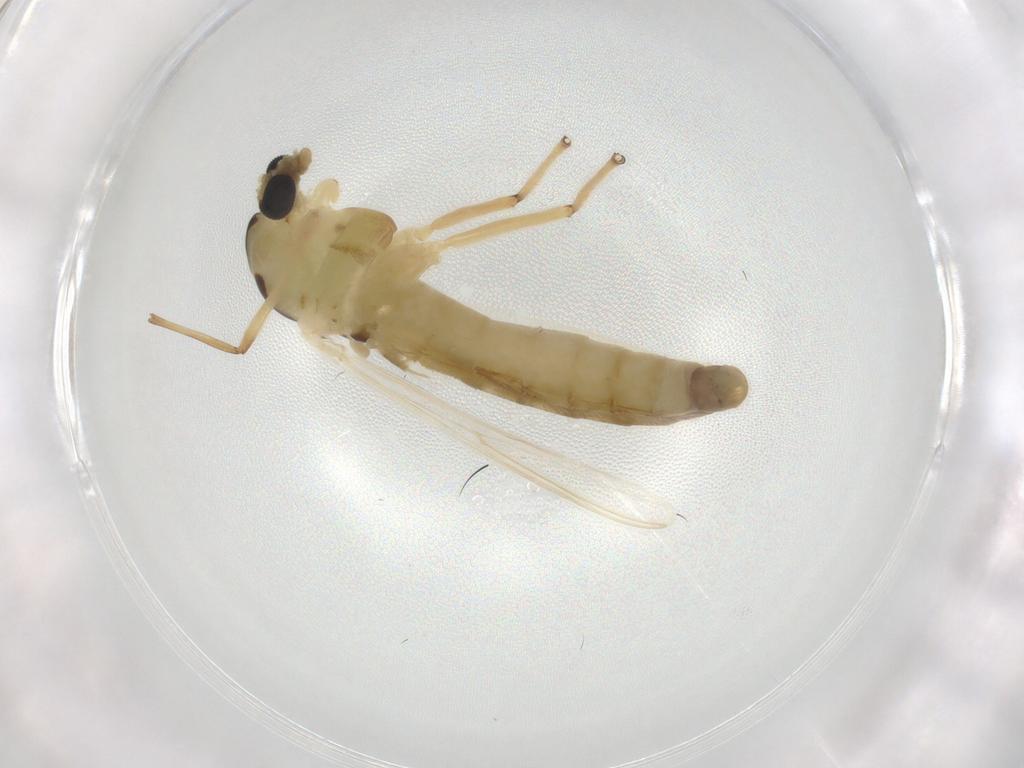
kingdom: Animalia
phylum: Arthropoda
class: Insecta
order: Diptera
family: Chironomidae
